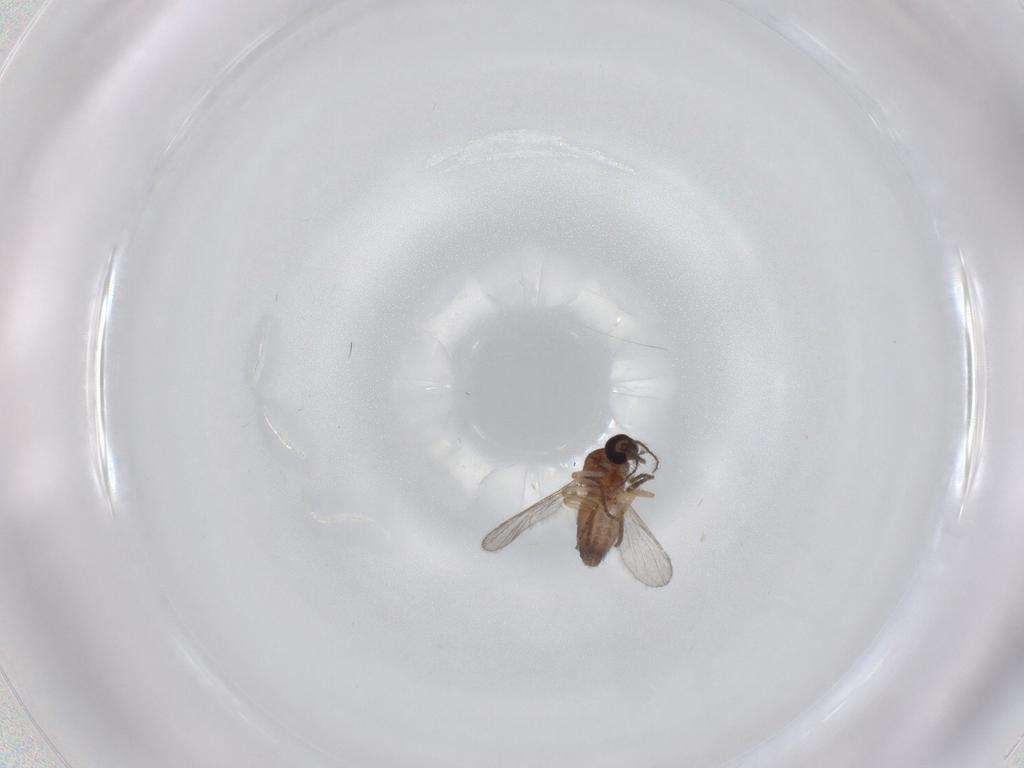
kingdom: Animalia
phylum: Arthropoda
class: Insecta
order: Diptera
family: Ceratopogonidae
